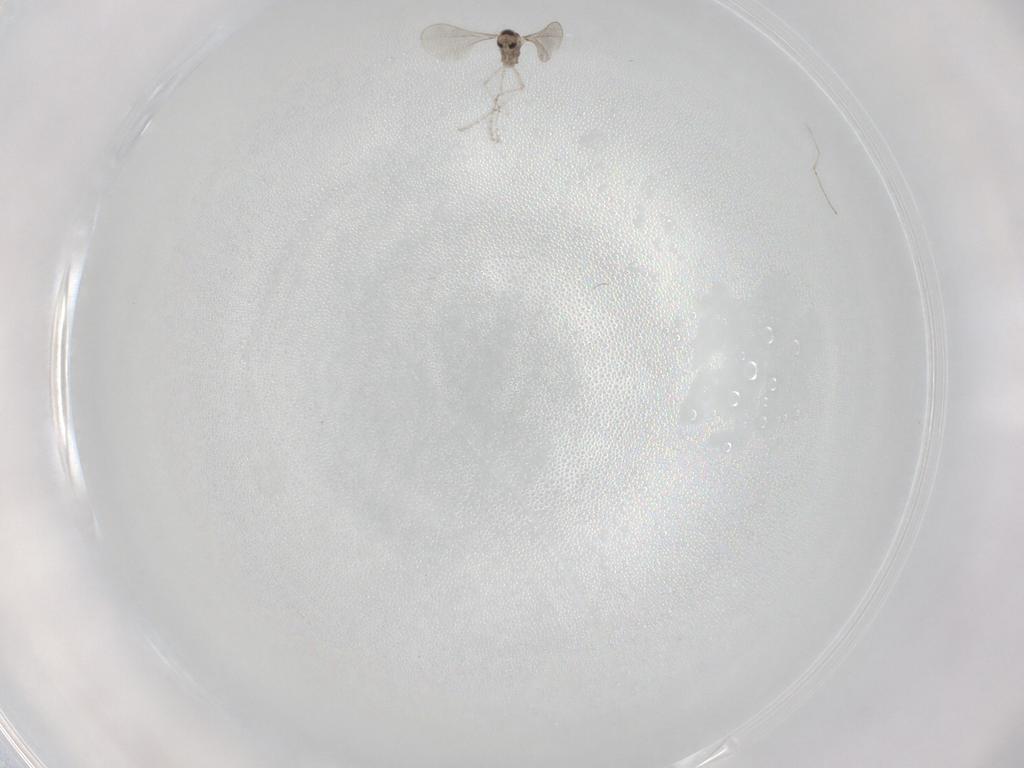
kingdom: Animalia
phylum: Arthropoda
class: Insecta
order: Diptera
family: Cecidomyiidae
